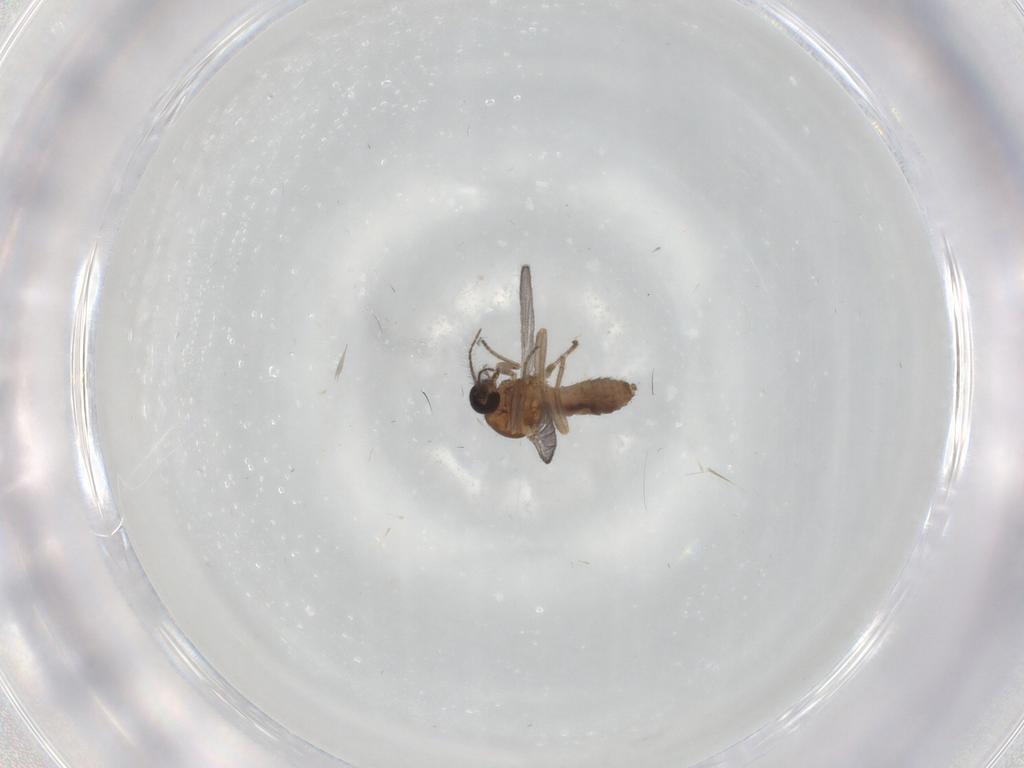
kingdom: Animalia
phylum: Arthropoda
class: Insecta
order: Diptera
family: Ceratopogonidae
